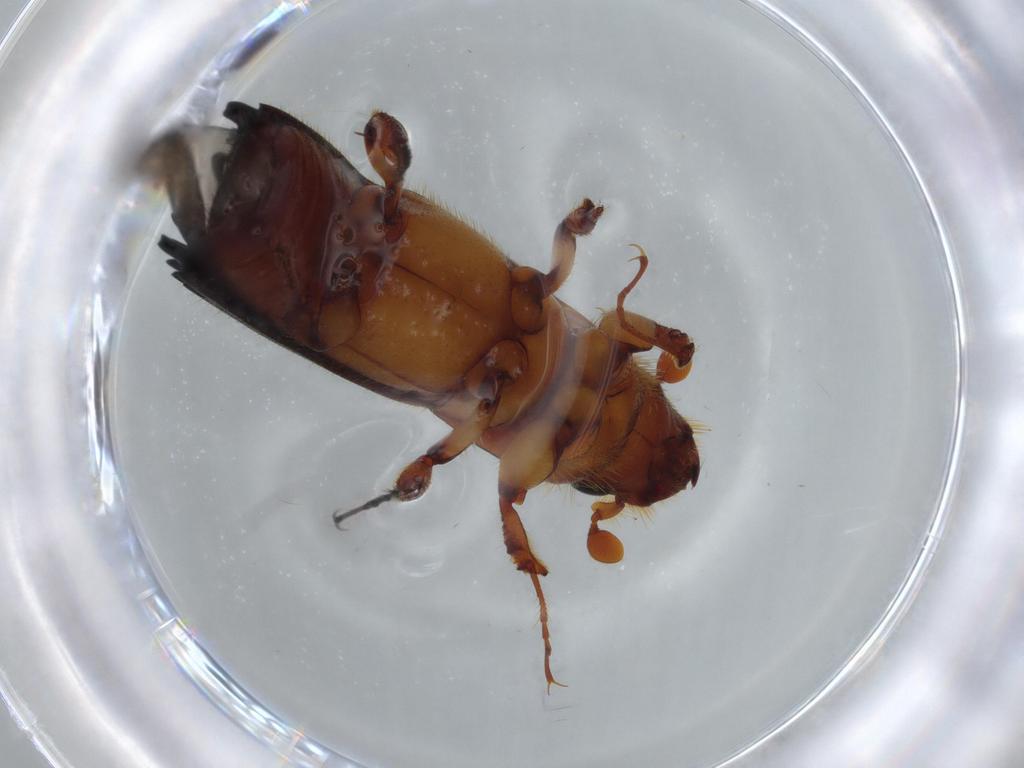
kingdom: Animalia
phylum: Arthropoda
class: Insecta
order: Coleoptera
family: Curculionidae
